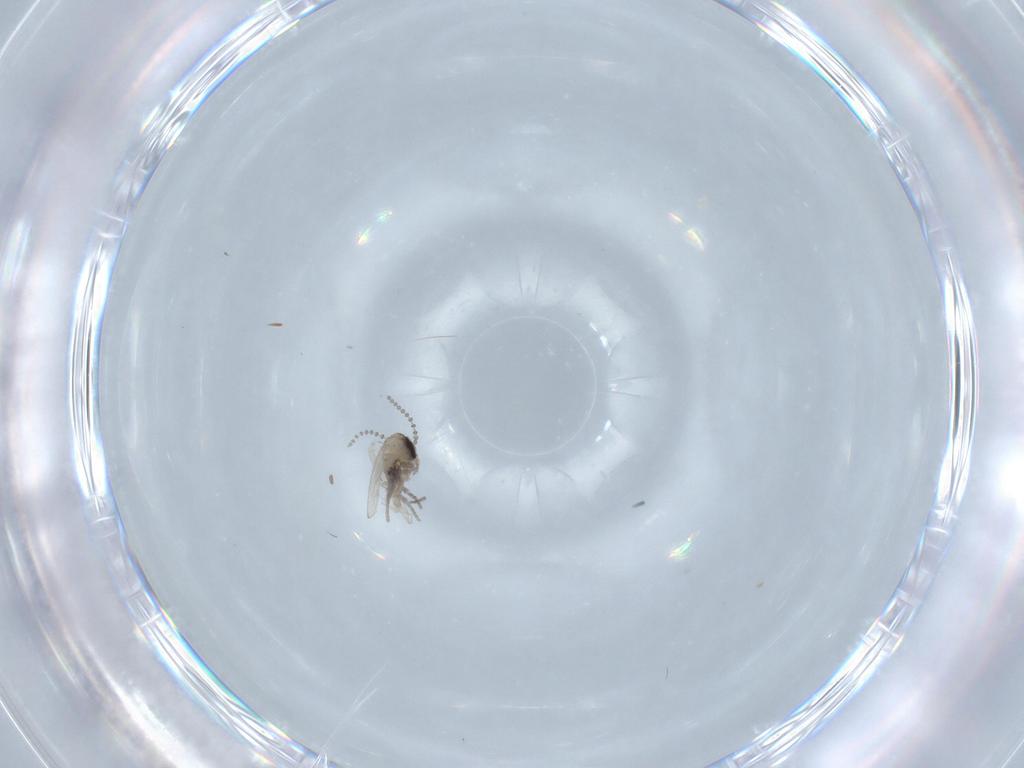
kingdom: Animalia
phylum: Arthropoda
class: Insecta
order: Diptera
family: Psychodidae
